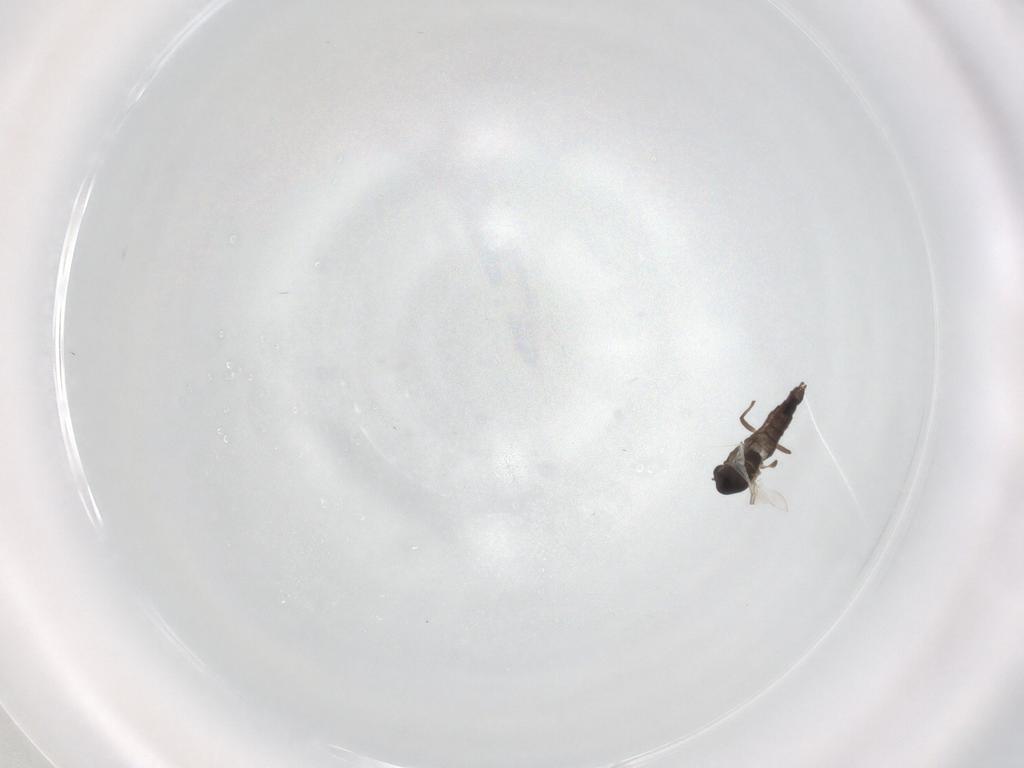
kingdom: Animalia
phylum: Arthropoda
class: Insecta
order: Diptera
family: Chironomidae
